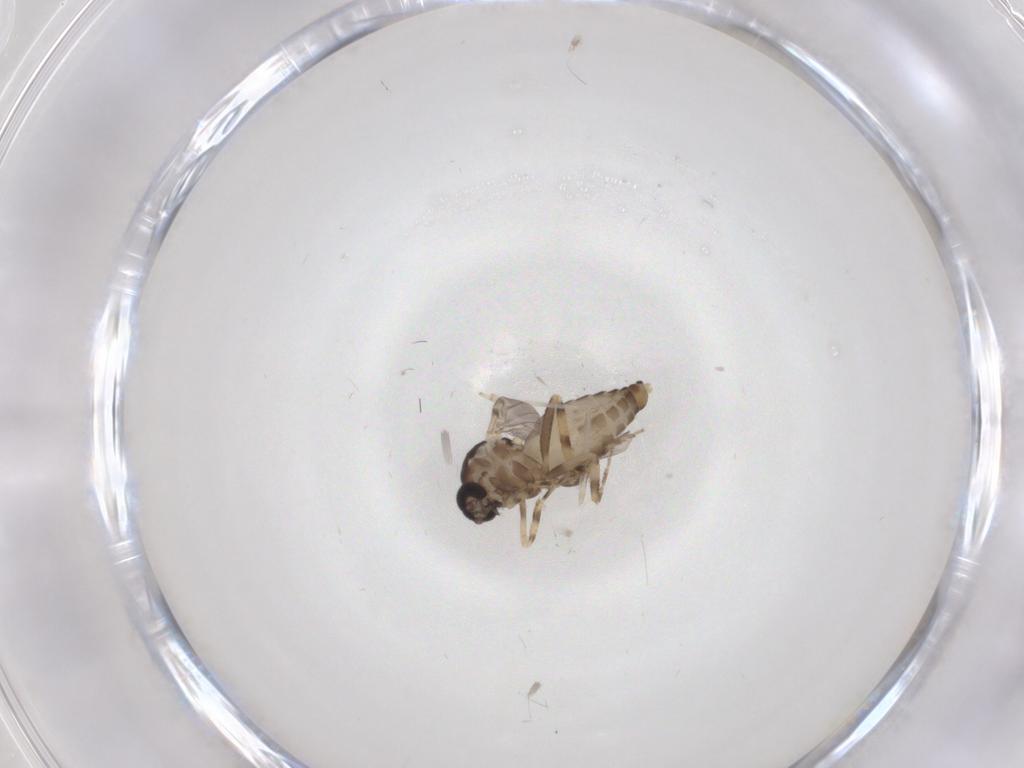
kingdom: Animalia
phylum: Arthropoda
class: Insecta
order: Diptera
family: Ceratopogonidae
